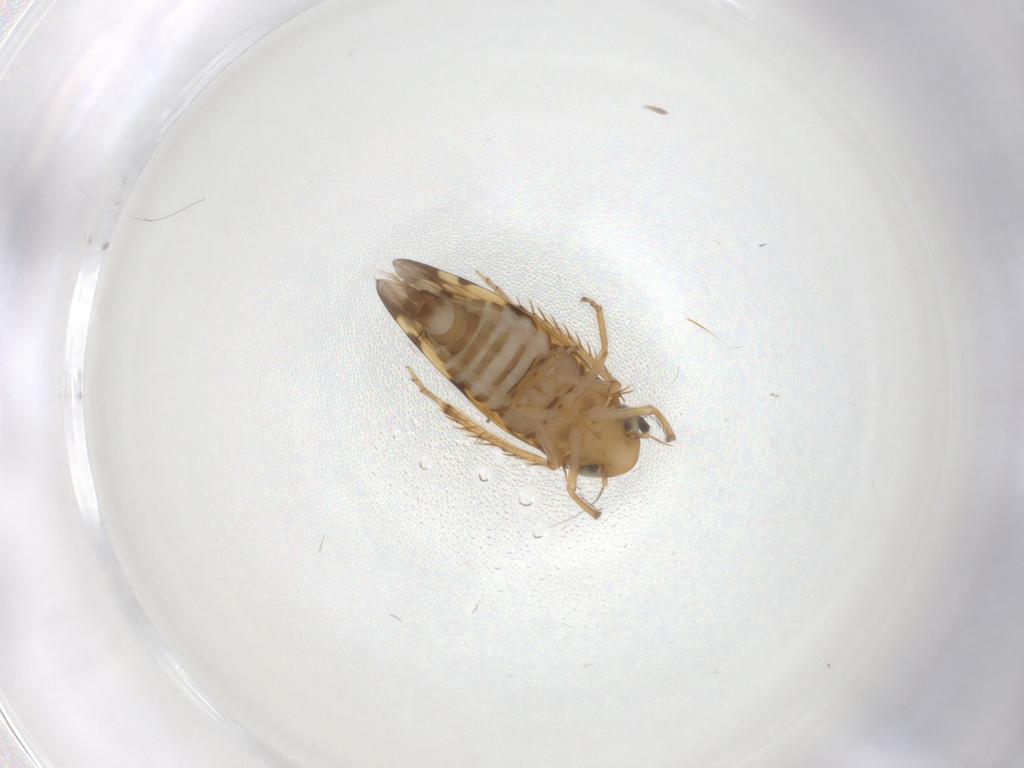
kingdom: Animalia
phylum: Arthropoda
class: Insecta
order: Hemiptera
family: Cicadellidae
